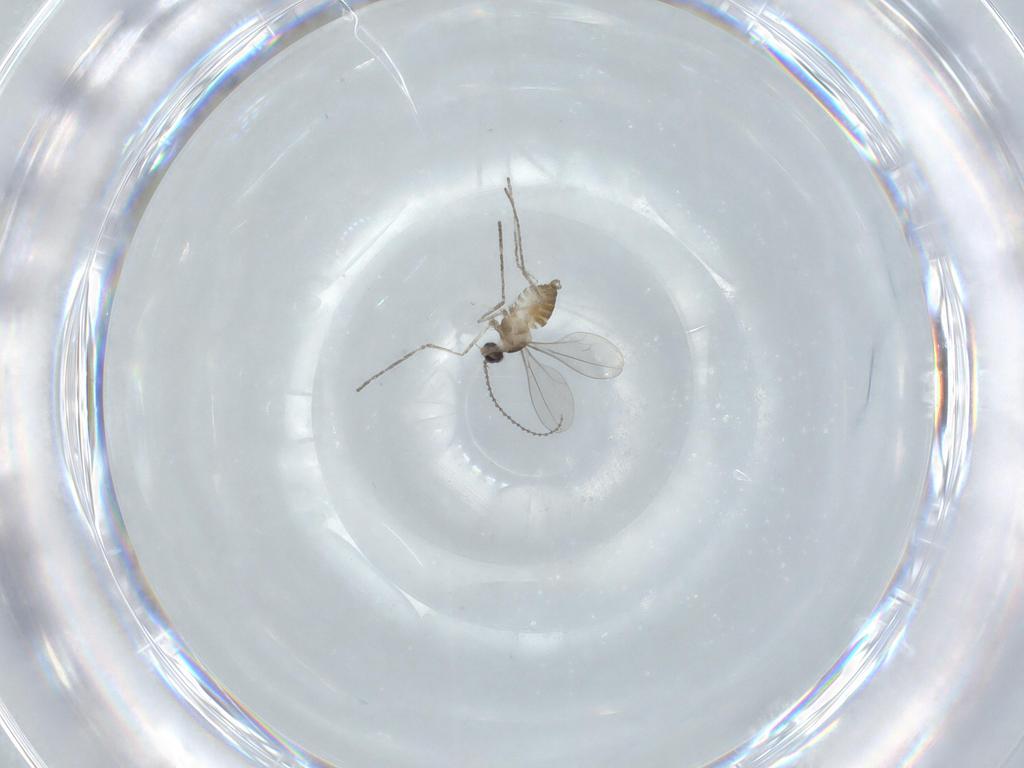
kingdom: Animalia
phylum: Arthropoda
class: Insecta
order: Diptera
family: Cecidomyiidae
